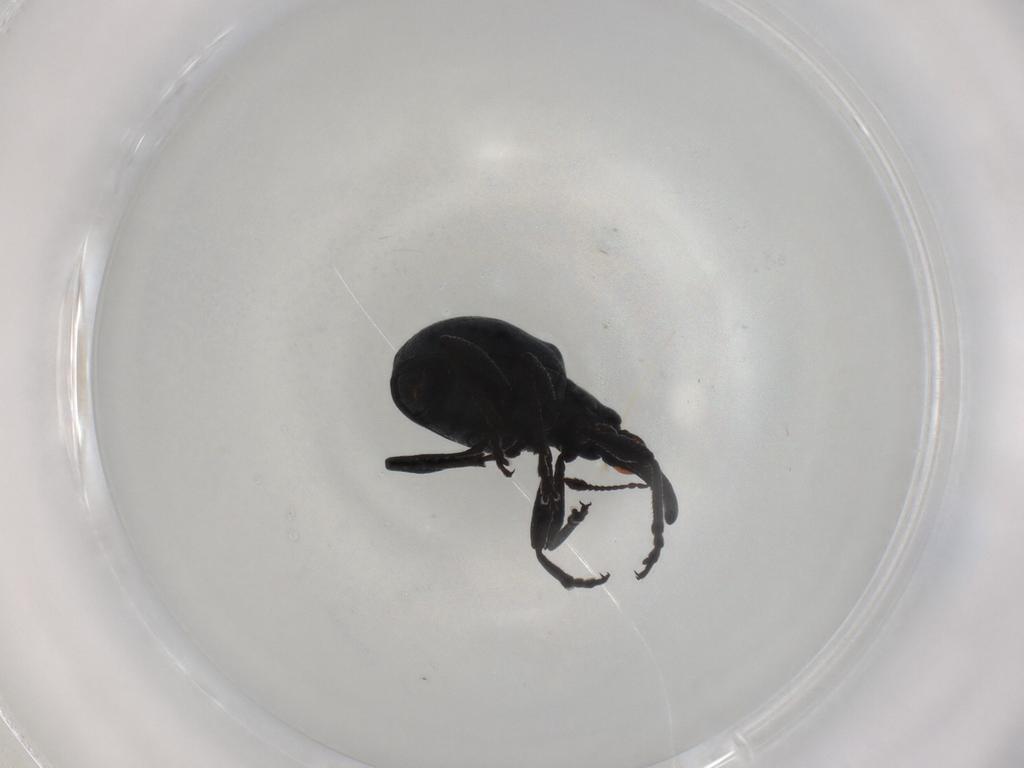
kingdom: Animalia
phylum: Arthropoda
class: Insecta
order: Coleoptera
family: Brentidae
